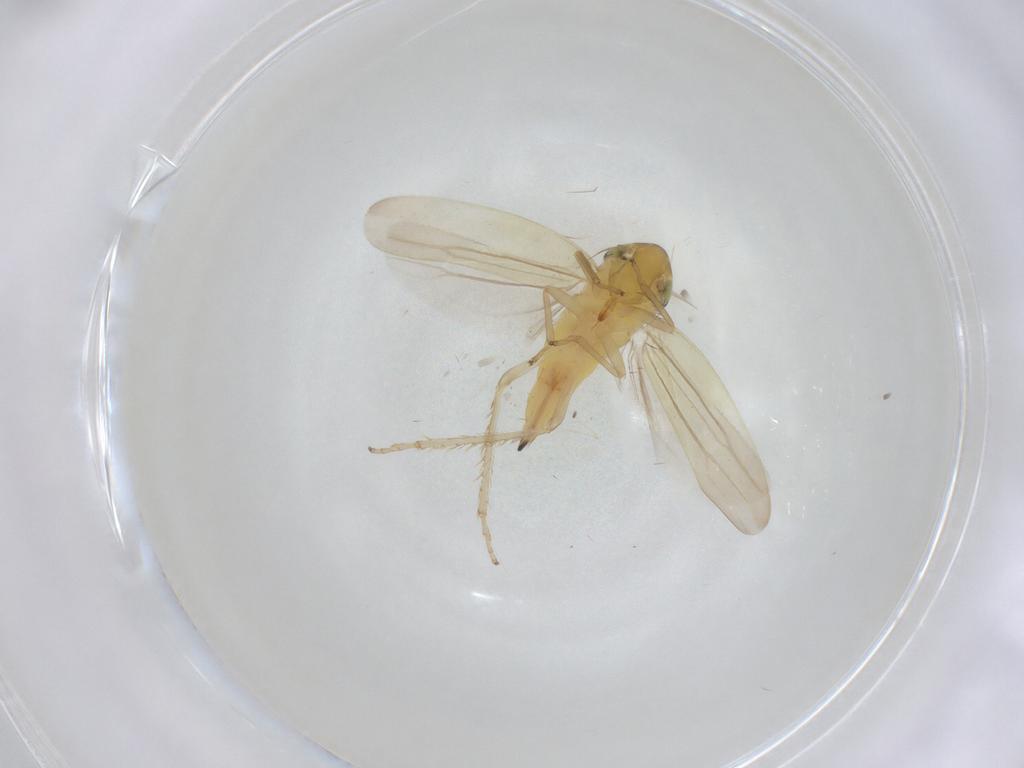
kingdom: Animalia
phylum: Arthropoda
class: Insecta
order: Hemiptera
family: Cicadellidae
